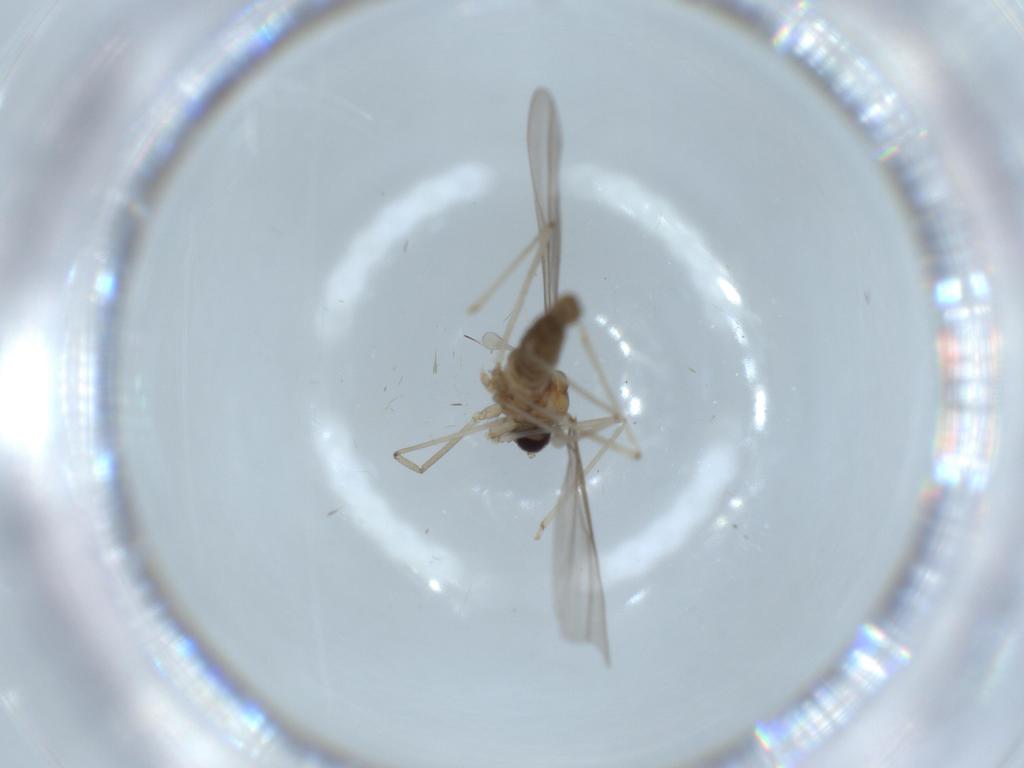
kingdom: Animalia
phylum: Arthropoda
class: Insecta
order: Diptera
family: Cecidomyiidae
